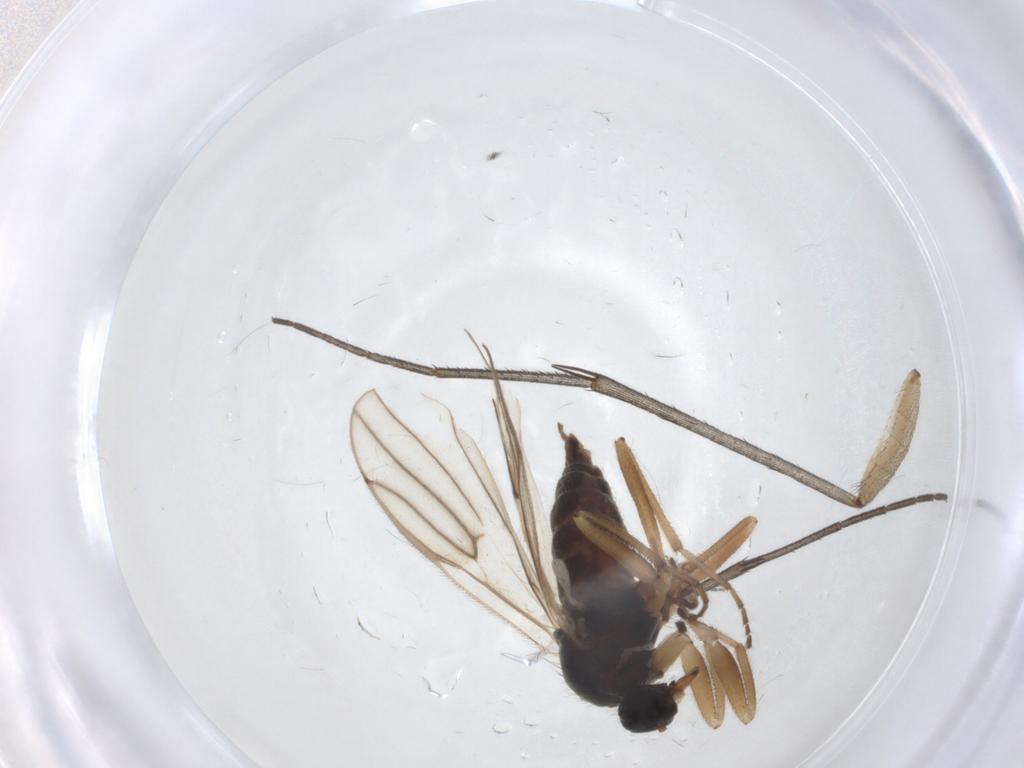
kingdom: Animalia
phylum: Arthropoda
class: Insecta
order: Diptera
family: Hybotidae
